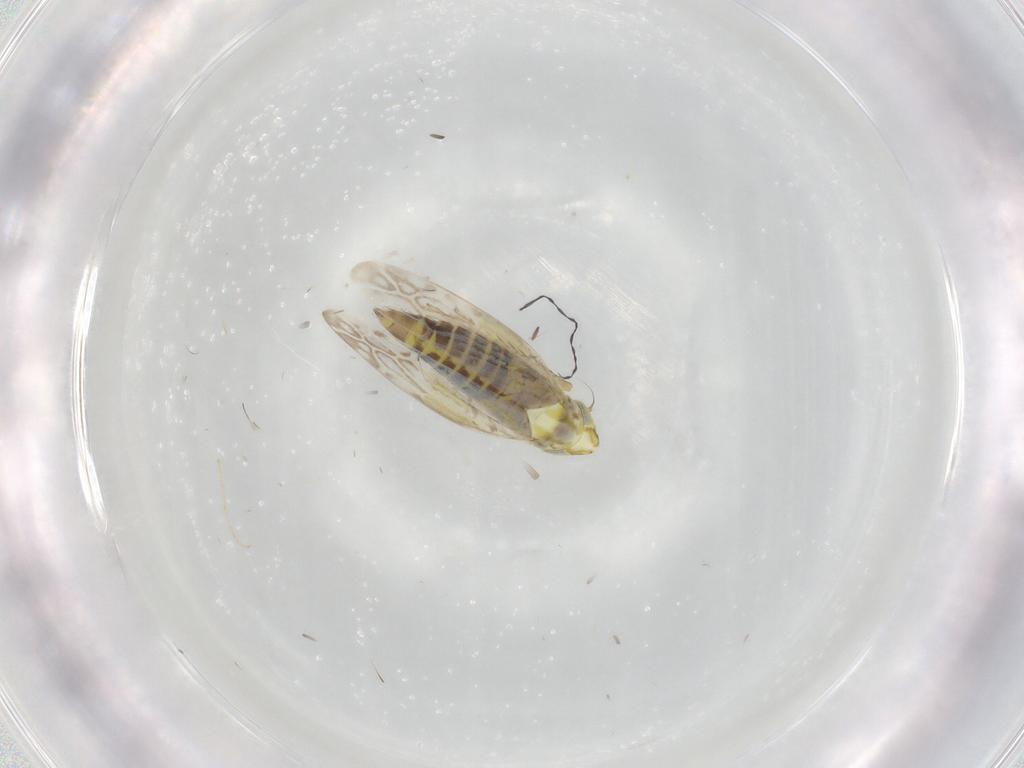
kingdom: Animalia
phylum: Arthropoda
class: Insecta
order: Hemiptera
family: Cicadellidae
